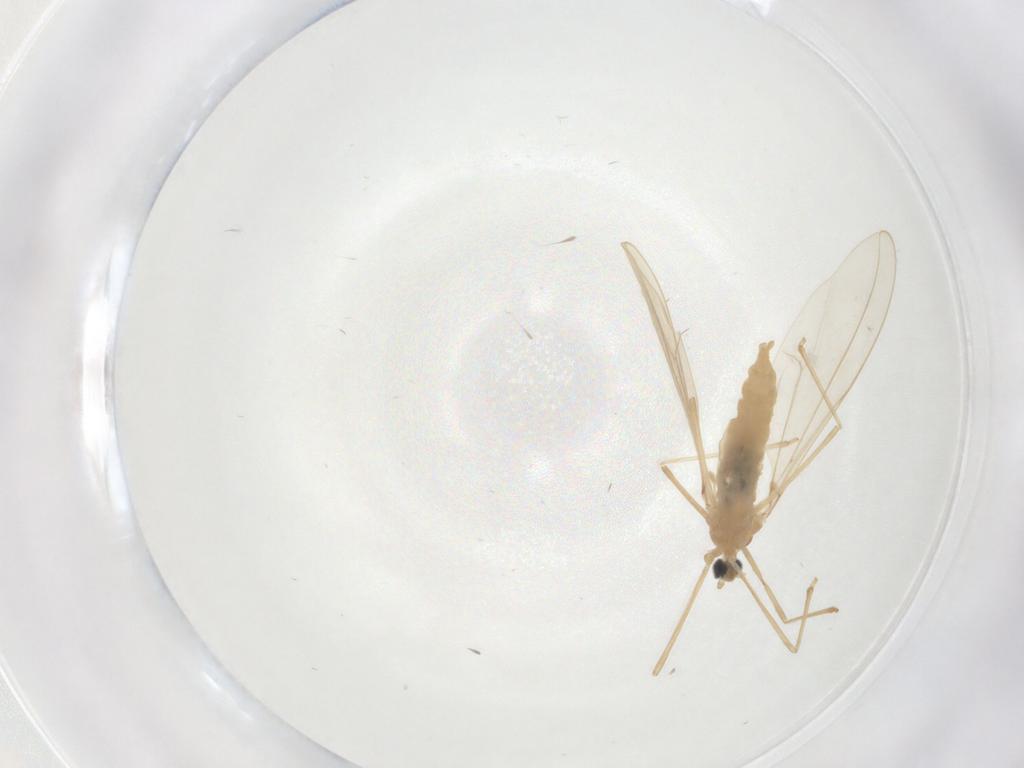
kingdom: Animalia
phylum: Arthropoda
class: Insecta
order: Diptera
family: Cecidomyiidae
